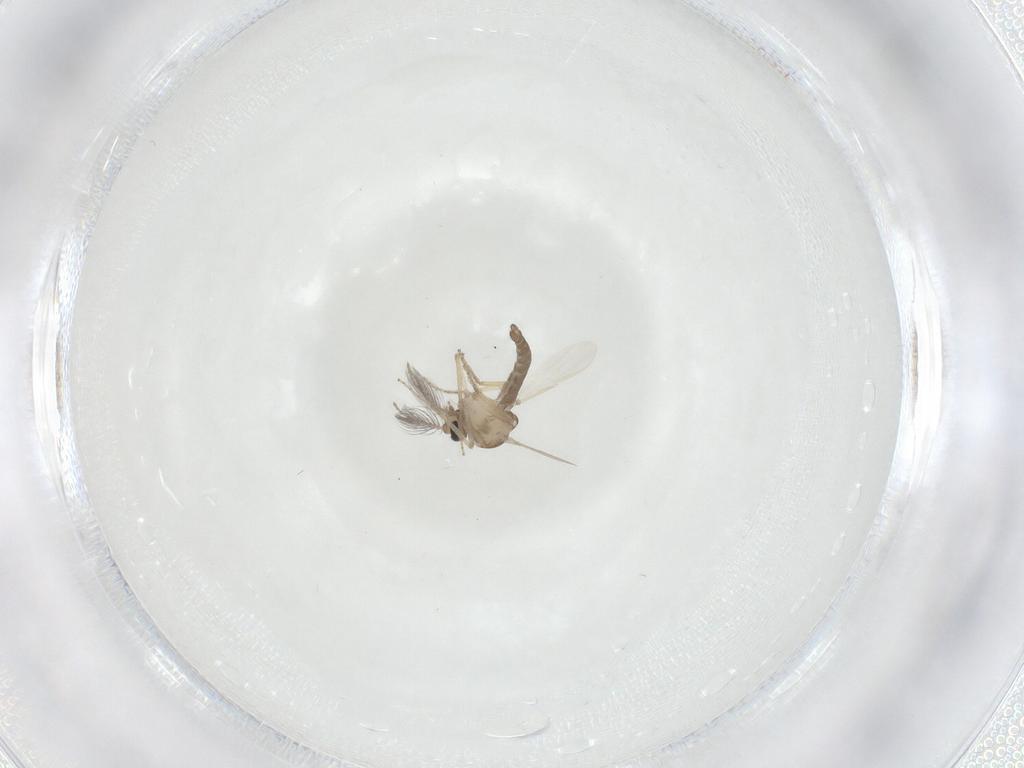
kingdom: Animalia
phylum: Arthropoda
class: Insecta
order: Diptera
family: Ceratopogonidae
